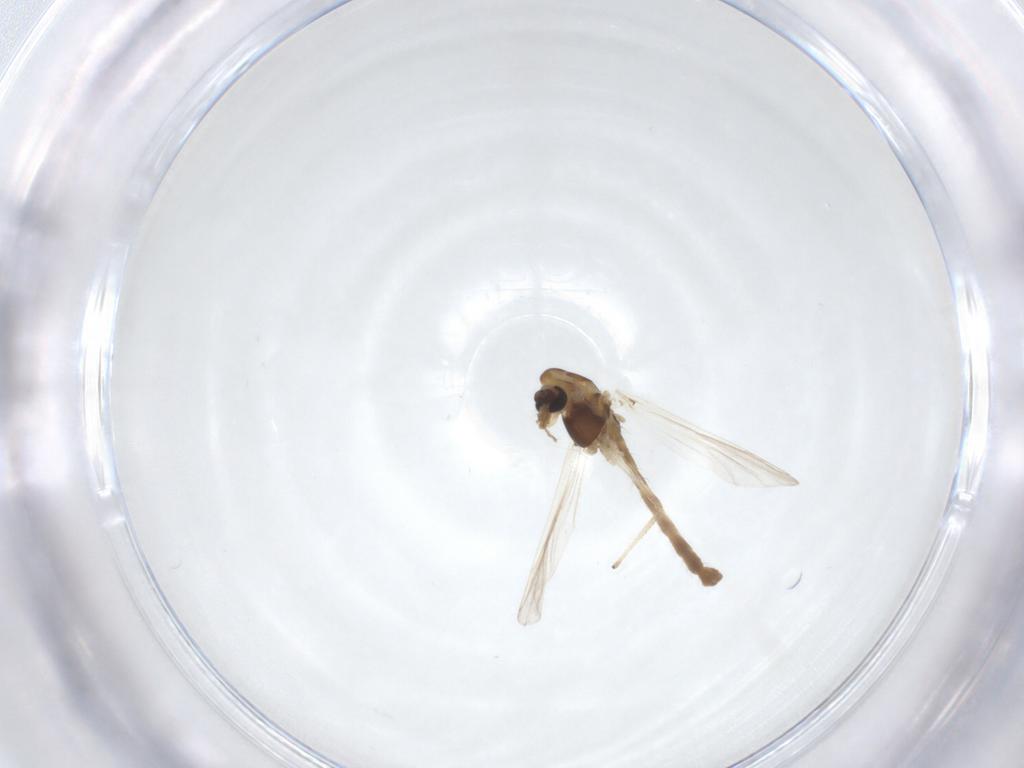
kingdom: Animalia
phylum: Arthropoda
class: Insecta
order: Diptera
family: Chironomidae
